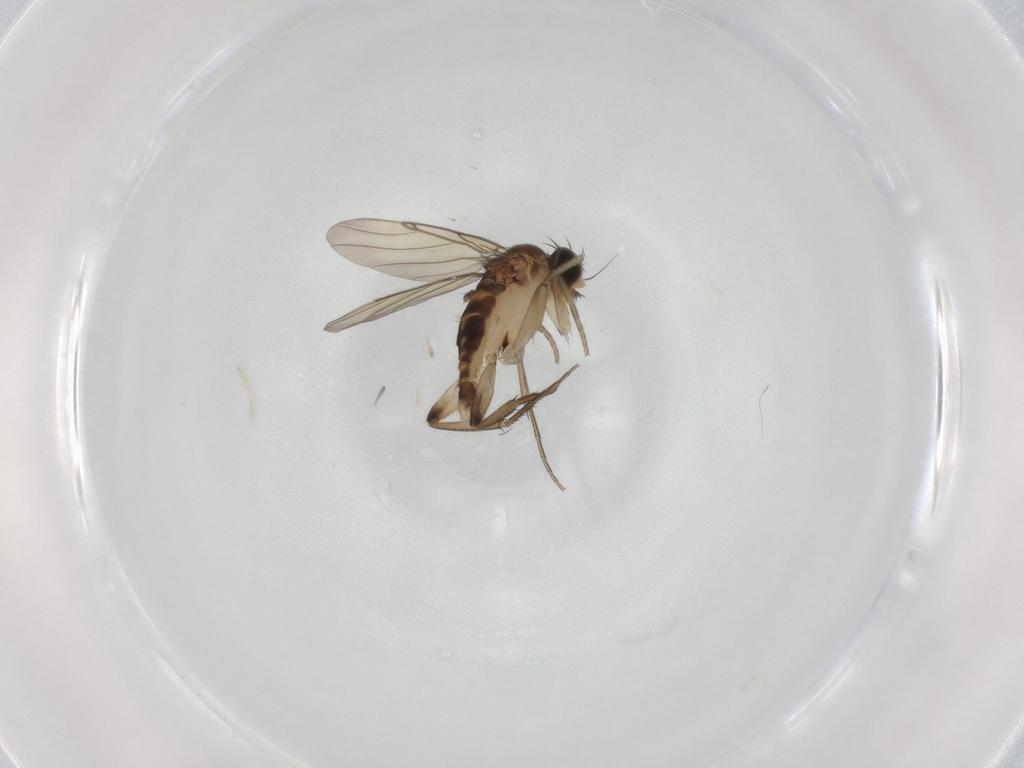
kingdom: Animalia
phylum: Arthropoda
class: Insecta
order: Diptera
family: Phoridae
